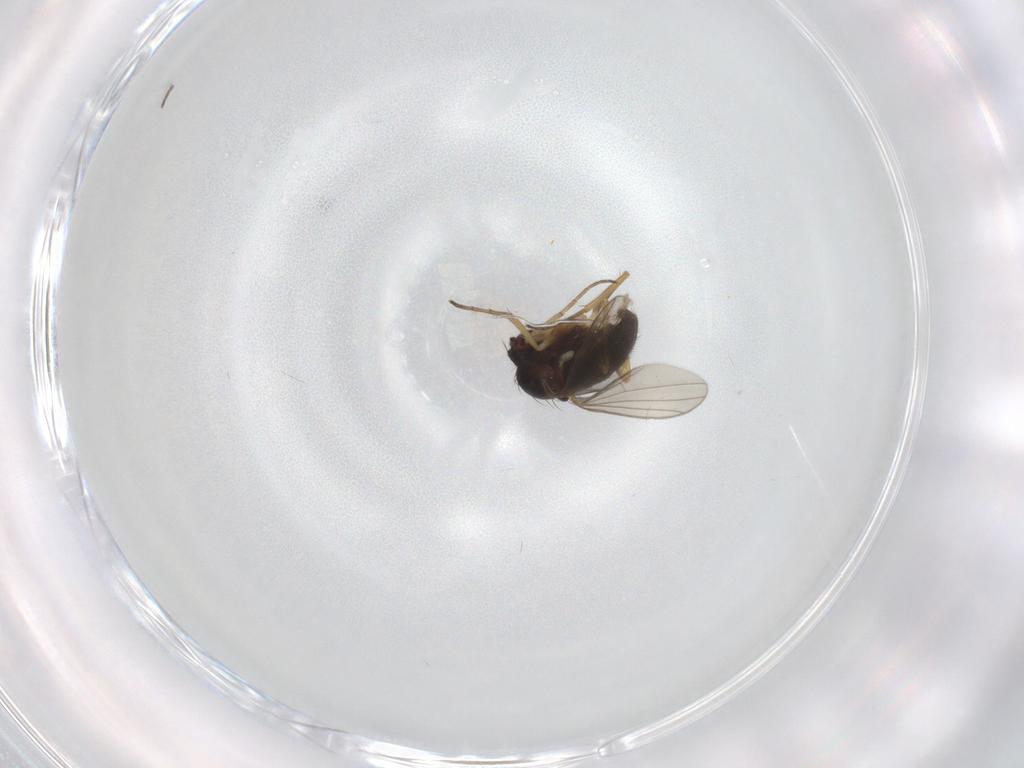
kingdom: Animalia
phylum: Arthropoda
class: Insecta
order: Diptera
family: Dolichopodidae
